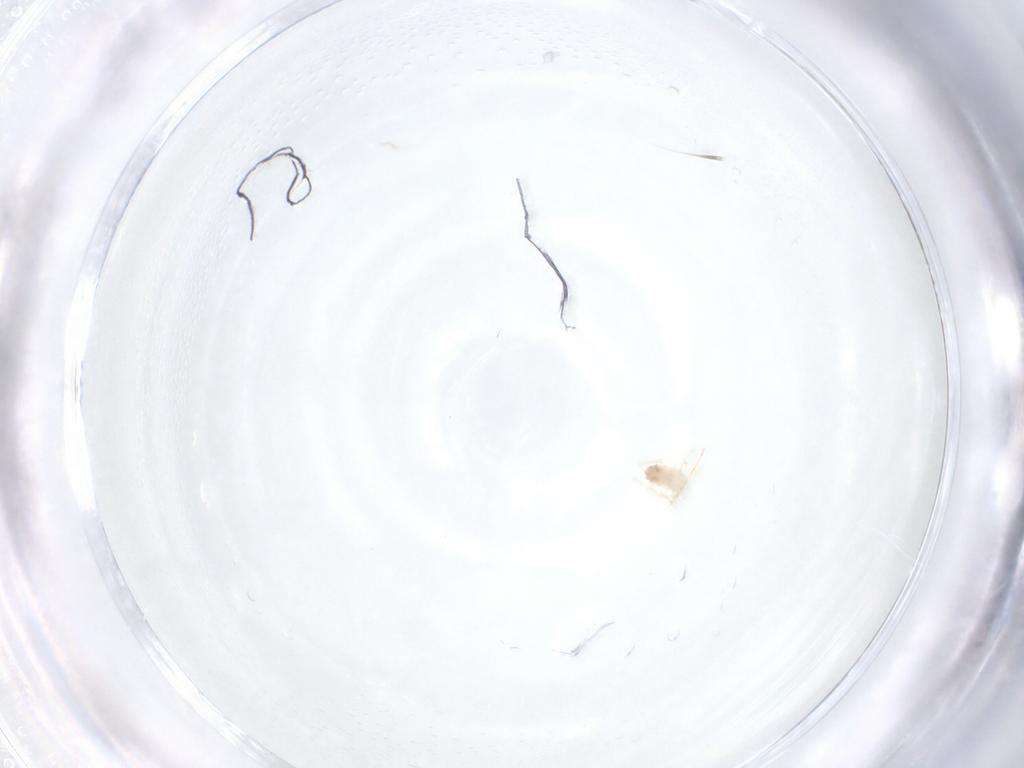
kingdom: Animalia
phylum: Arthropoda
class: Arachnida
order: Trombidiformes
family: Anystidae
